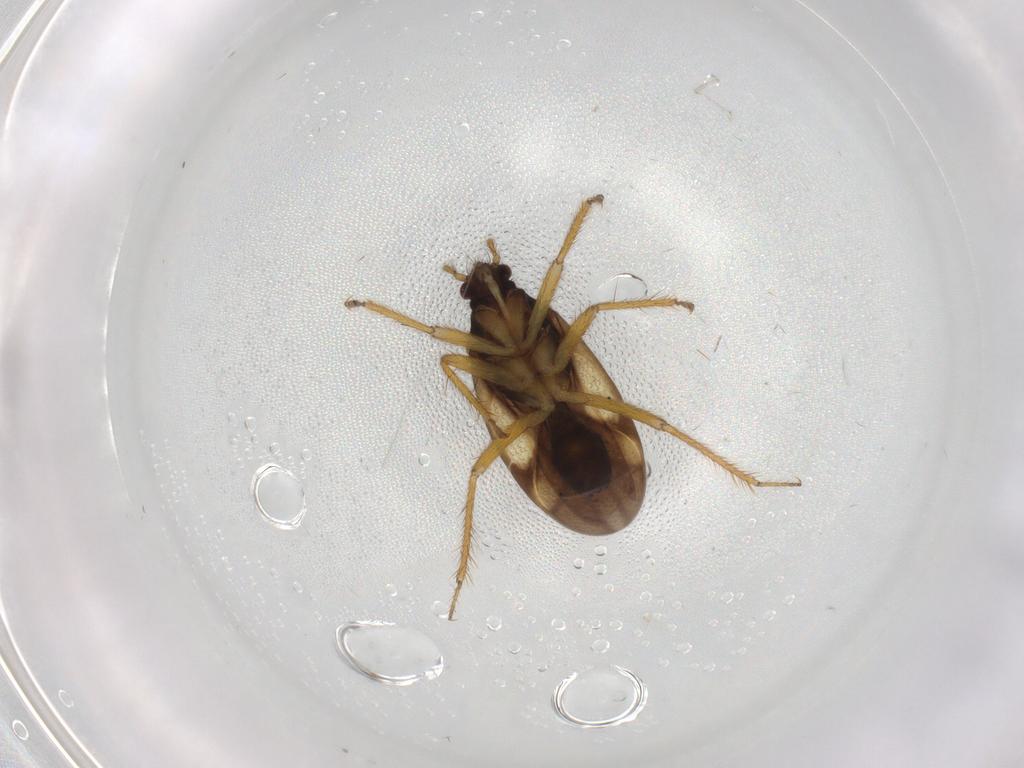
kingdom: Animalia
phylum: Arthropoda
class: Insecta
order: Hemiptera
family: Ceratocombidae
